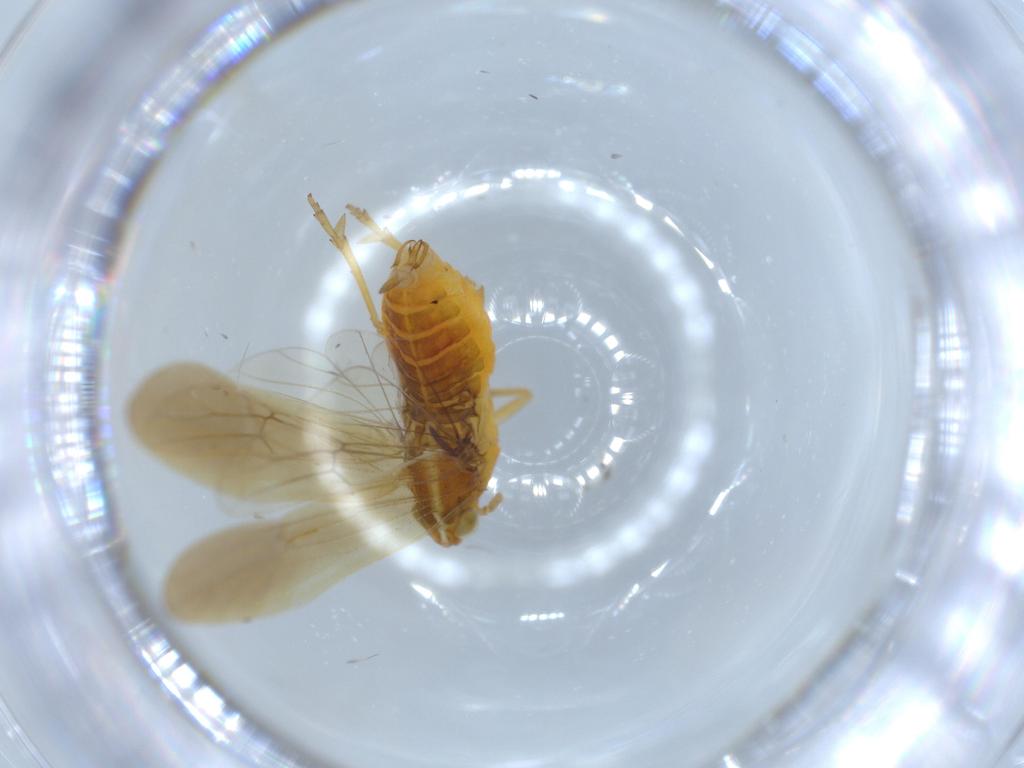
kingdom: Animalia
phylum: Arthropoda
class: Insecta
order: Hemiptera
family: Delphacidae
